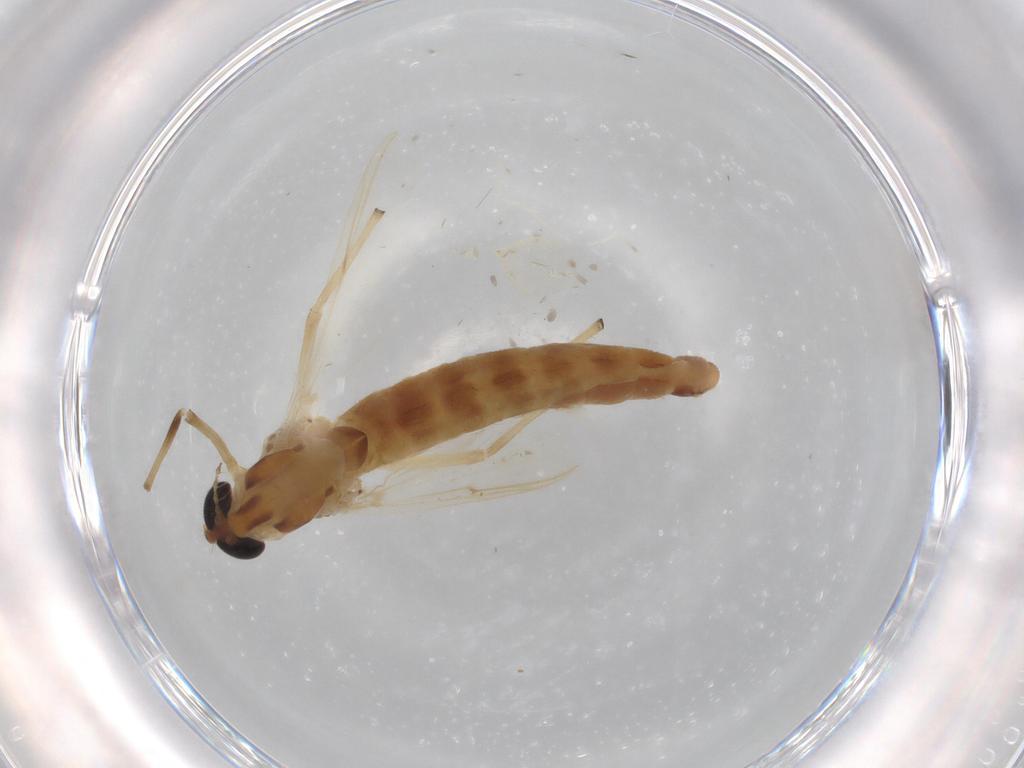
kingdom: Animalia
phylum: Arthropoda
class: Insecta
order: Diptera
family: Chironomidae
